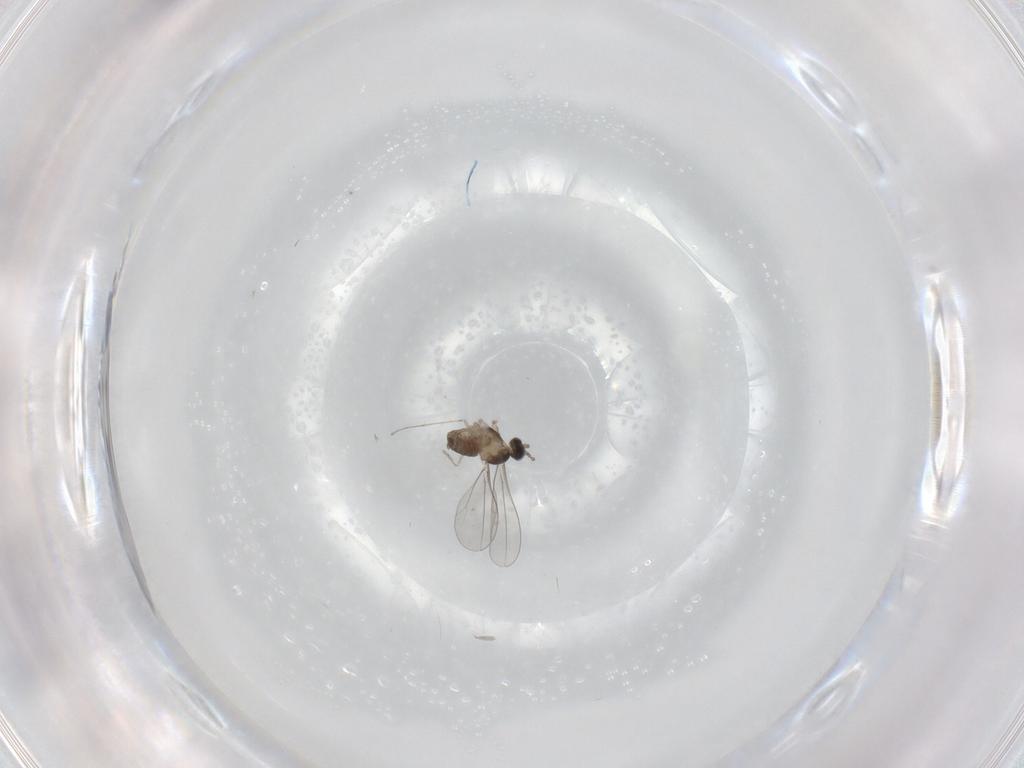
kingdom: Animalia
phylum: Arthropoda
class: Insecta
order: Diptera
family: Cecidomyiidae
